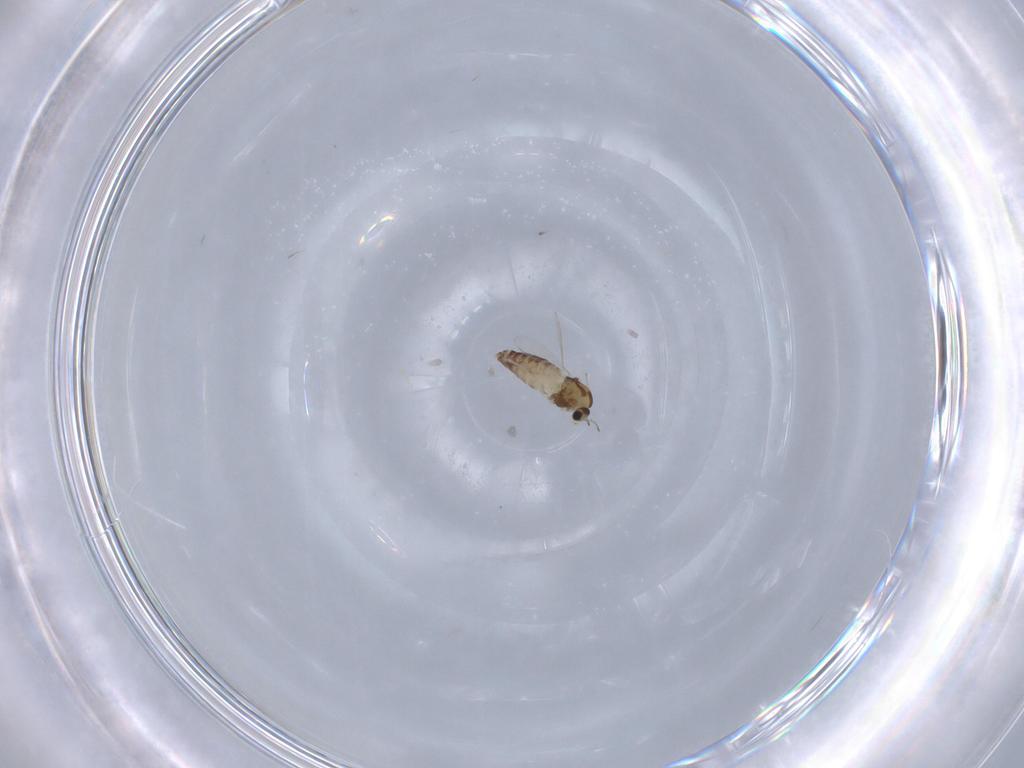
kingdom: Animalia
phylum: Arthropoda
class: Insecta
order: Diptera
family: Chironomidae
